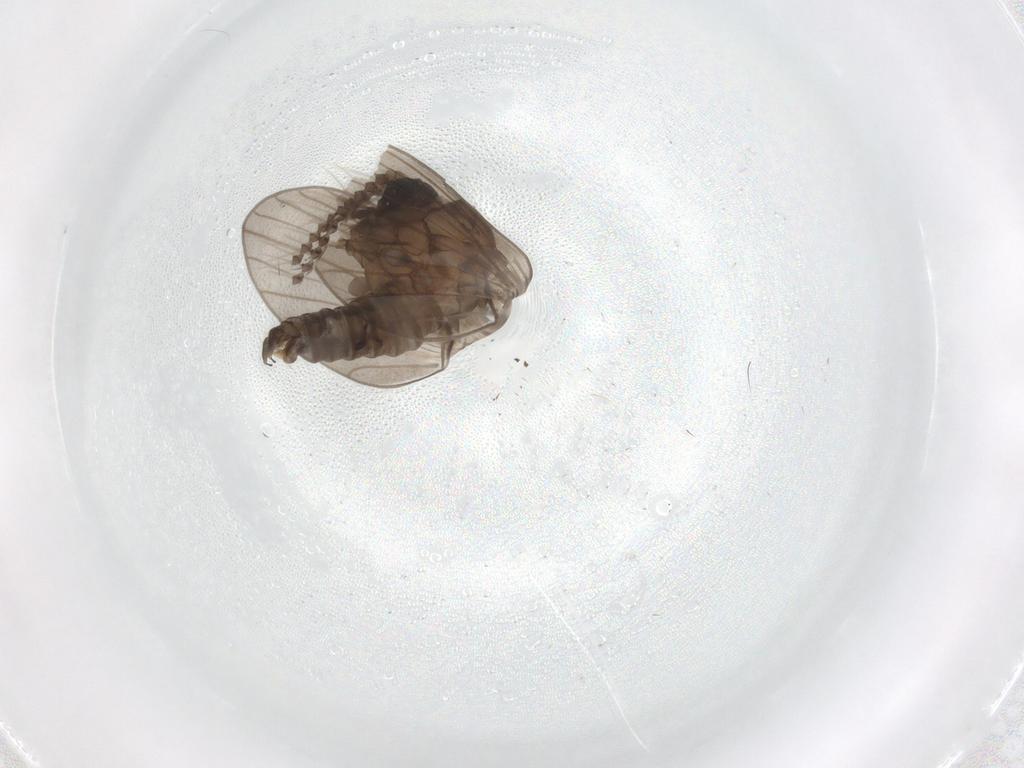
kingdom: Animalia
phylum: Arthropoda
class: Insecta
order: Diptera
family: Psychodidae
